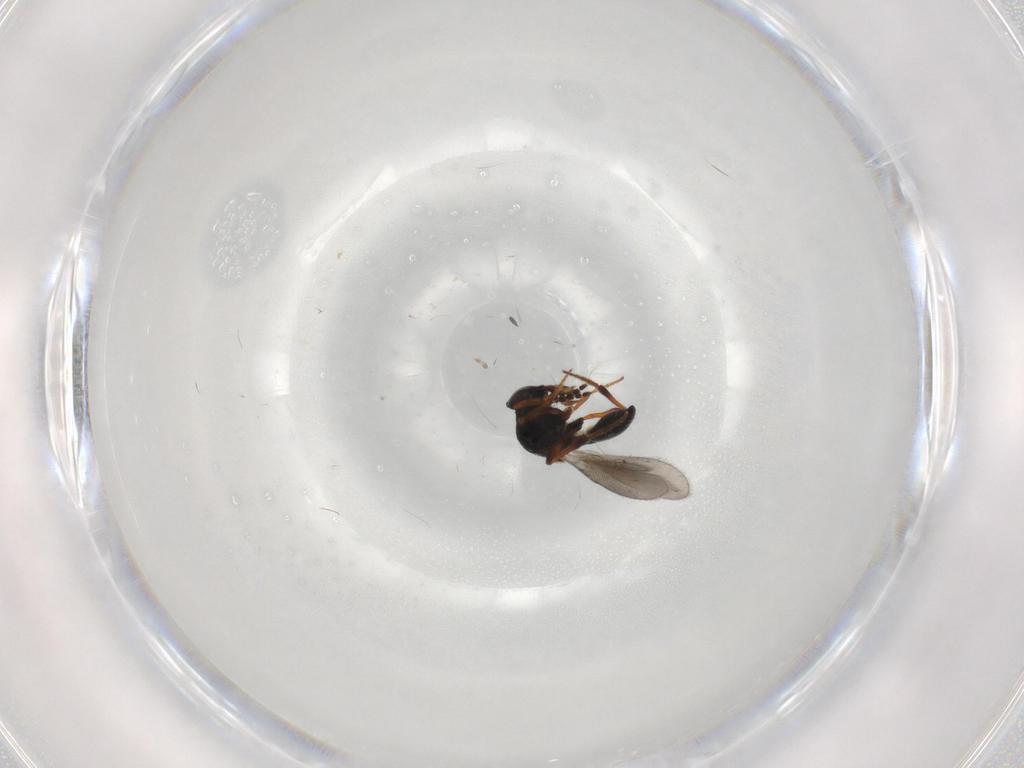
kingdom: Animalia
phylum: Arthropoda
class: Insecta
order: Hymenoptera
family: Platygastridae
